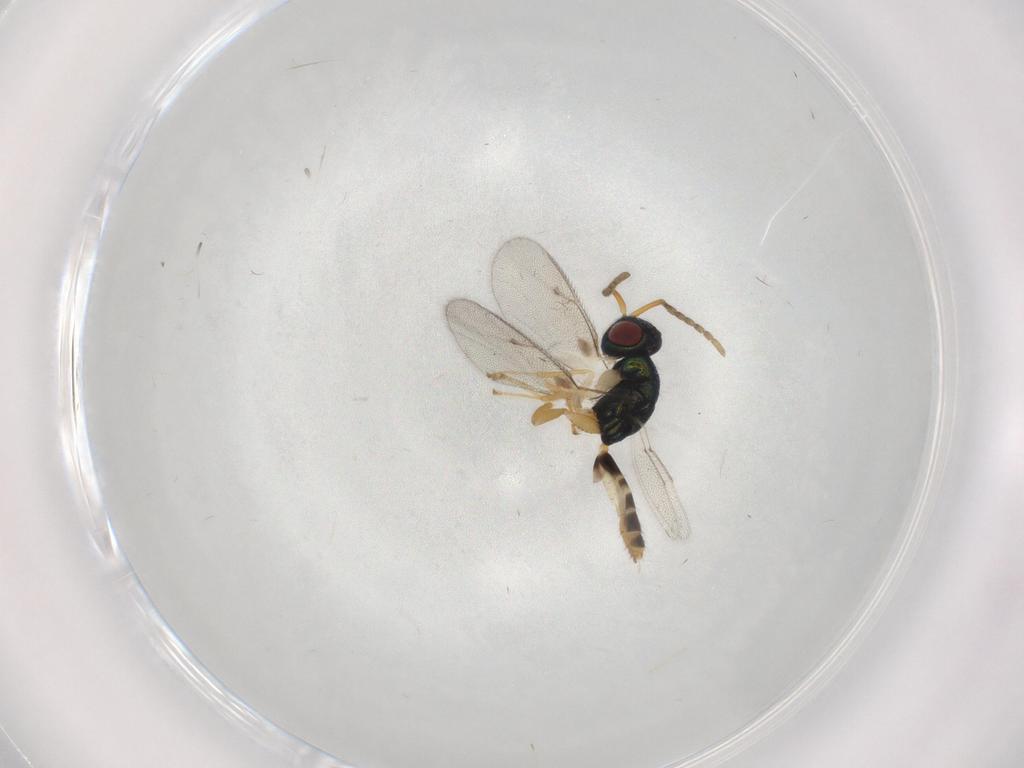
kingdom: Animalia
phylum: Arthropoda
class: Insecta
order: Hymenoptera
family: Pteromalidae
